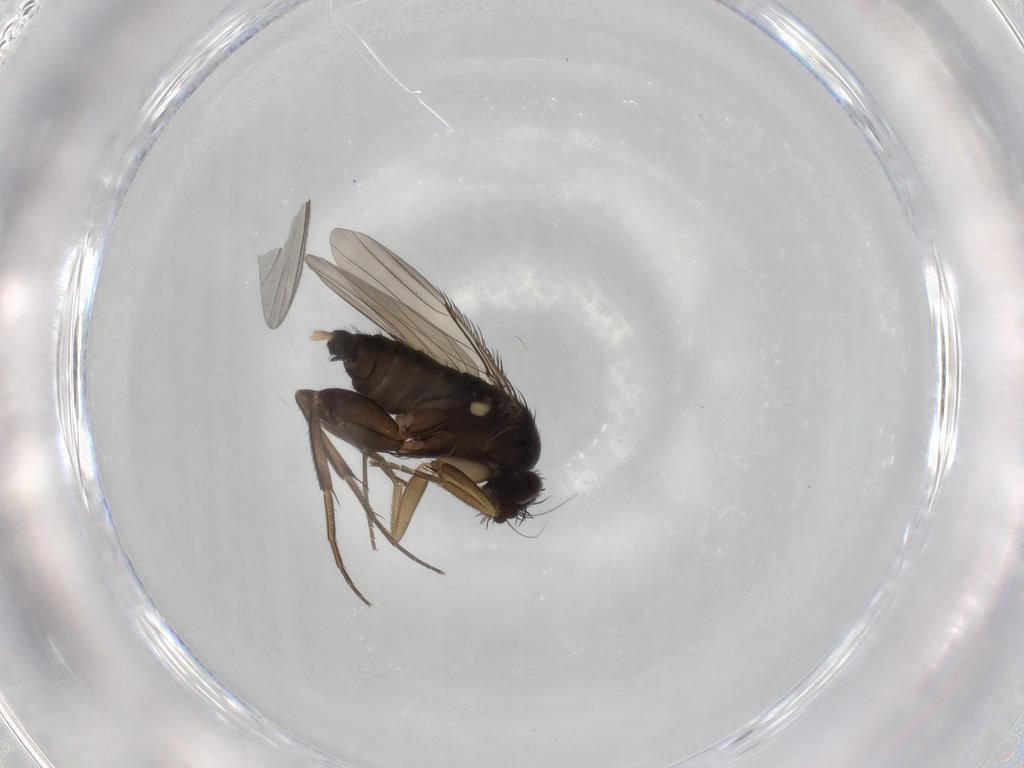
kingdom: Animalia
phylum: Arthropoda
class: Insecta
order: Diptera
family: Phoridae
